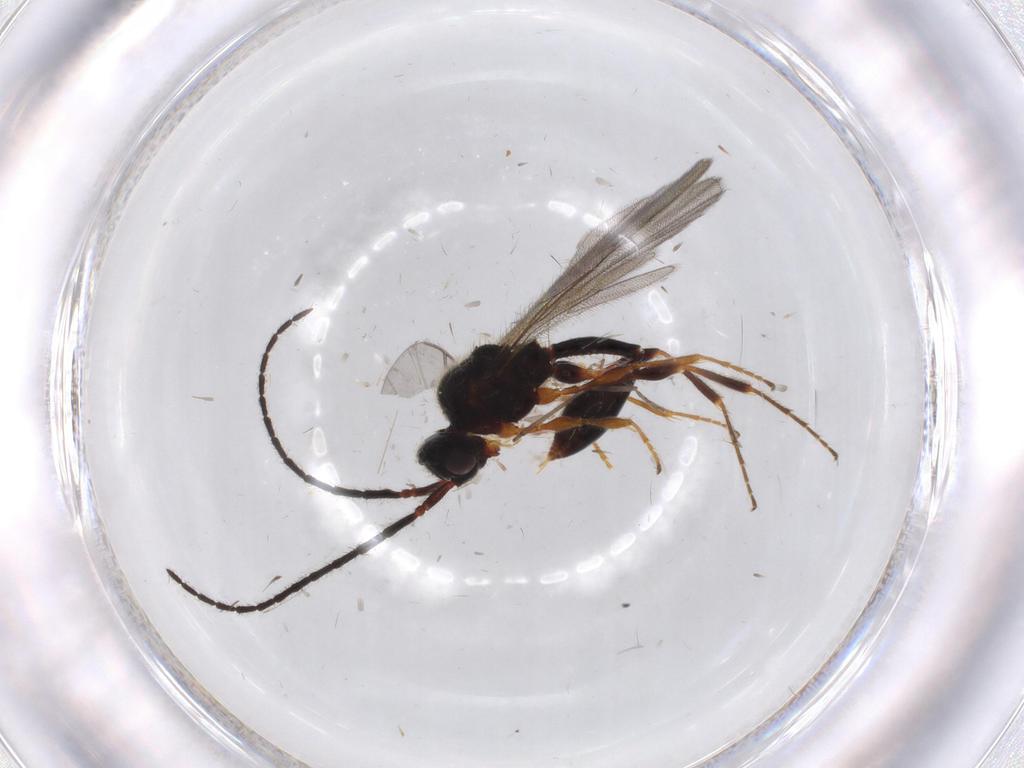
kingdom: Animalia
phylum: Arthropoda
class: Insecta
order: Hymenoptera
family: Diapriidae
